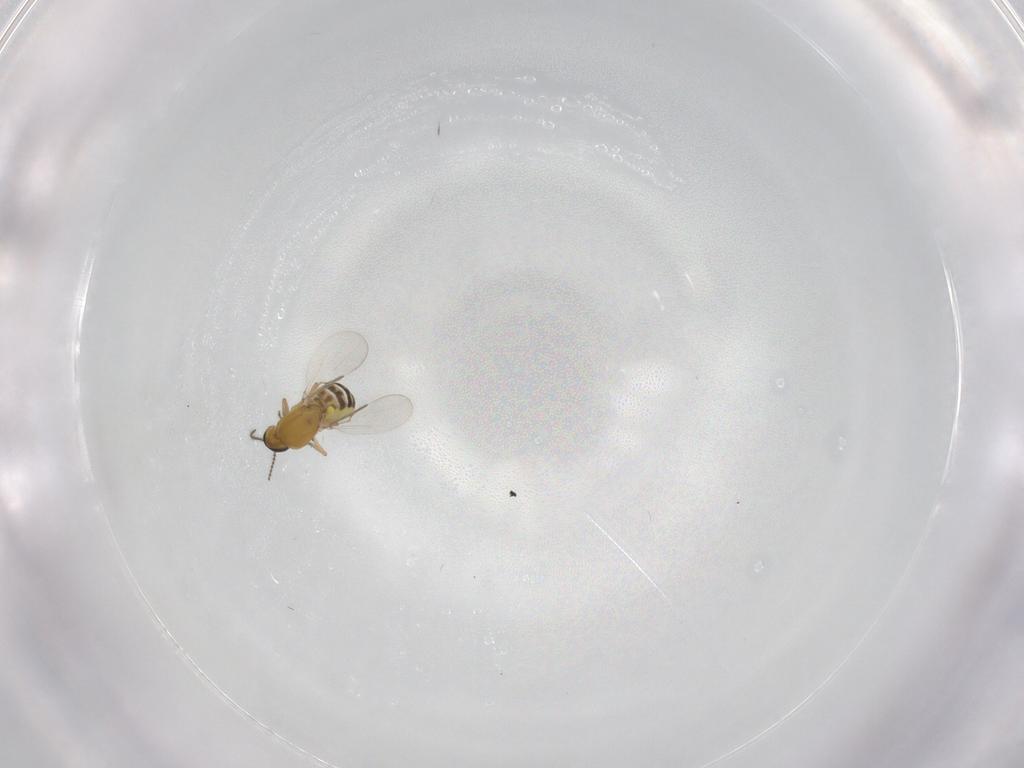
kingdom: Animalia
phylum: Arthropoda
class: Insecta
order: Diptera
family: Ceratopogonidae
